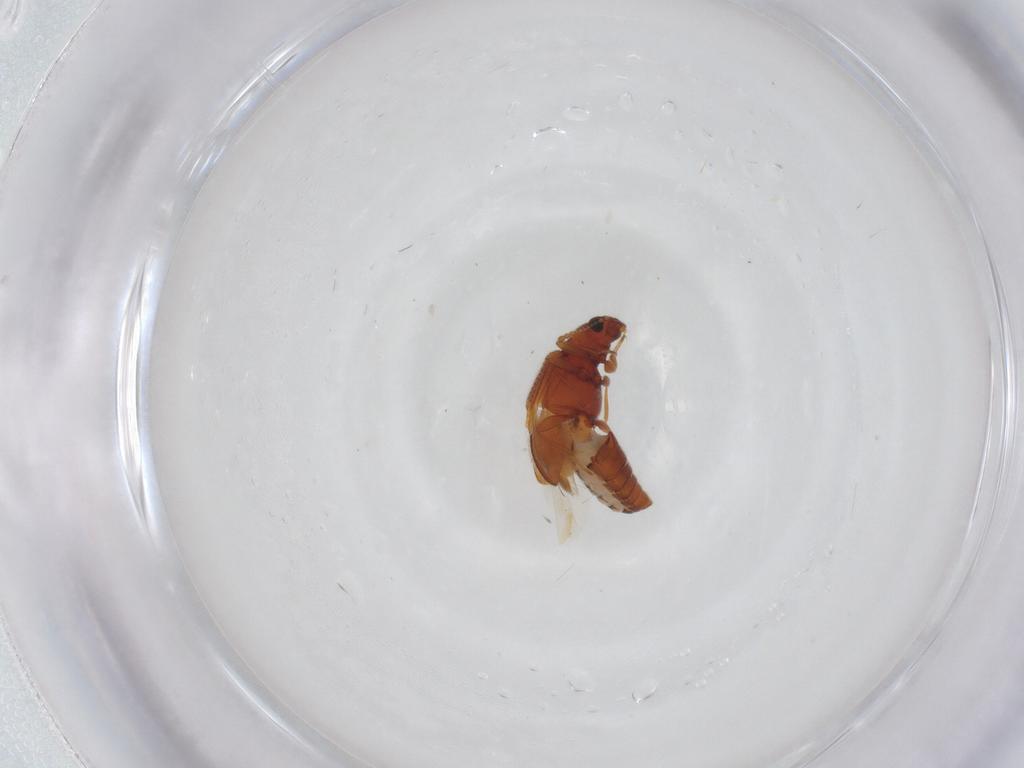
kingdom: Animalia
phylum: Arthropoda
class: Insecta
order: Coleoptera
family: Latridiidae
